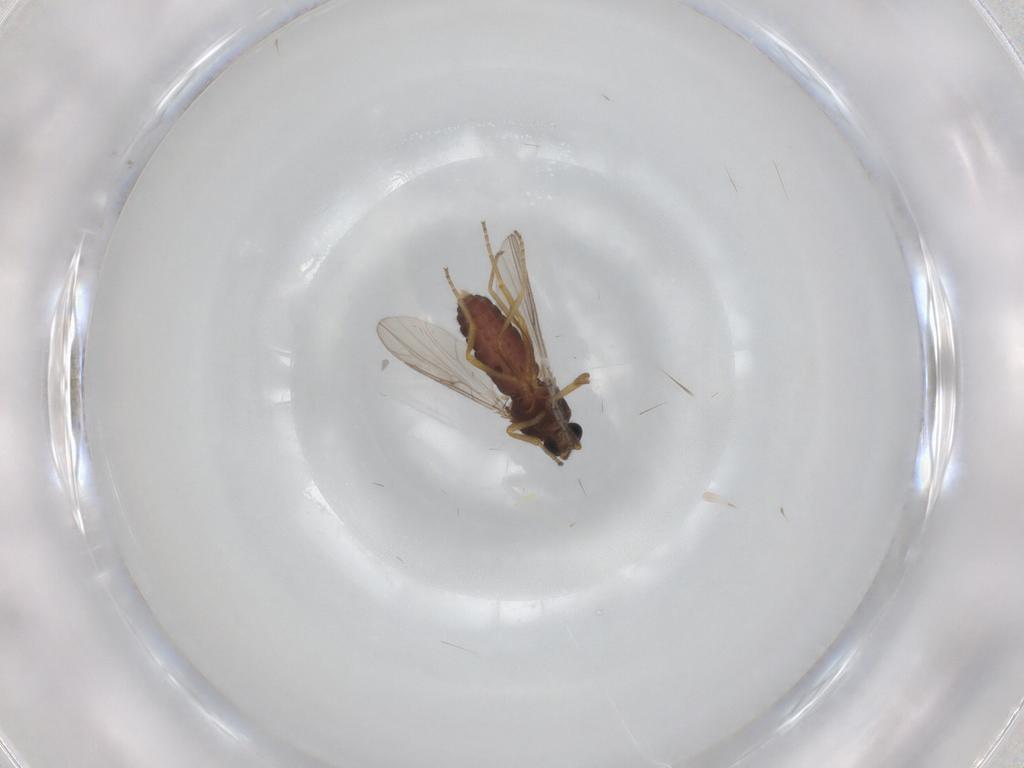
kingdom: Animalia
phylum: Arthropoda
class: Insecta
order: Diptera
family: Ceratopogonidae
